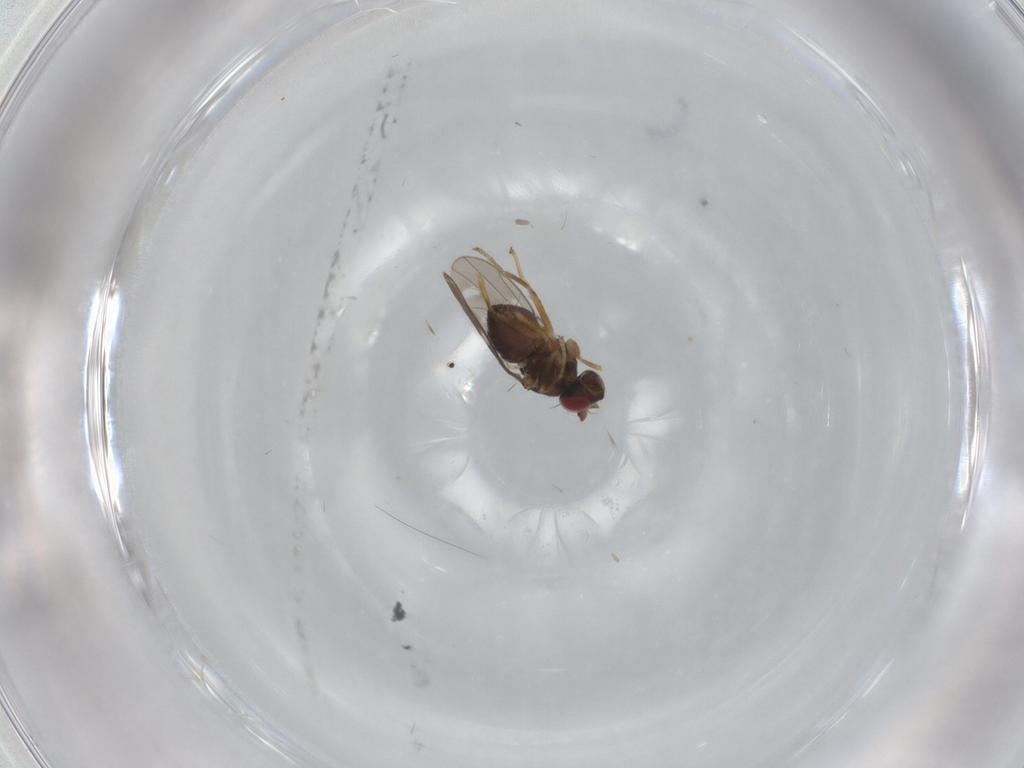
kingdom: Animalia
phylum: Arthropoda
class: Insecta
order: Diptera
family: Ephydridae
